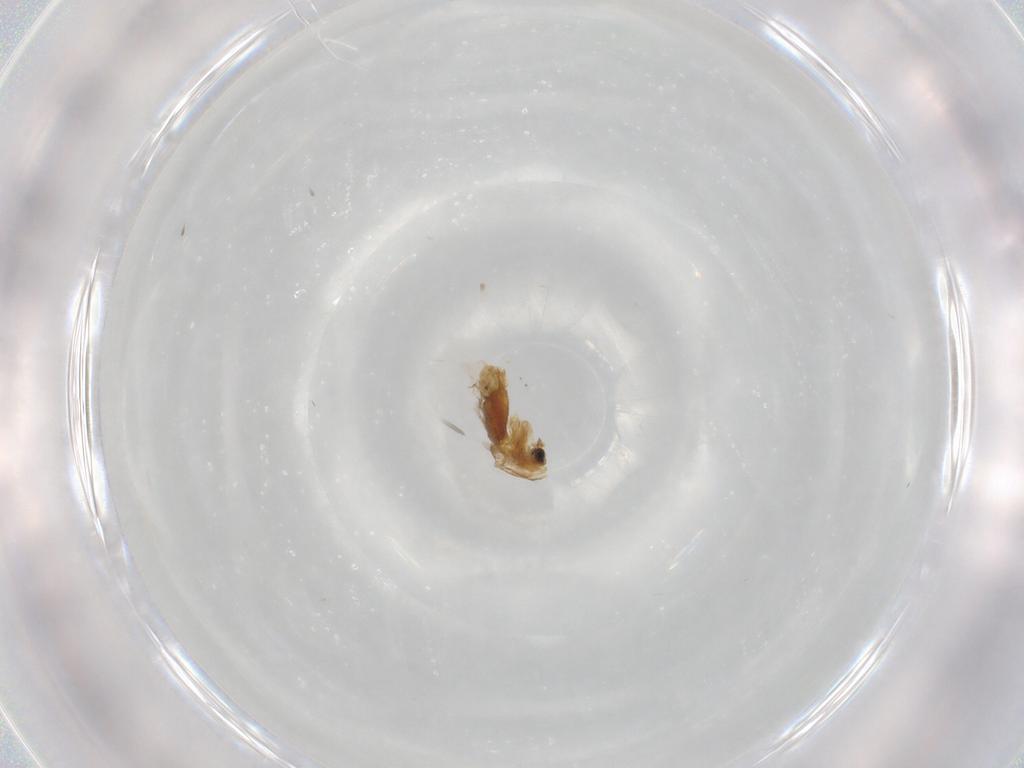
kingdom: Animalia
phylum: Arthropoda
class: Insecta
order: Diptera
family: Chironomidae
